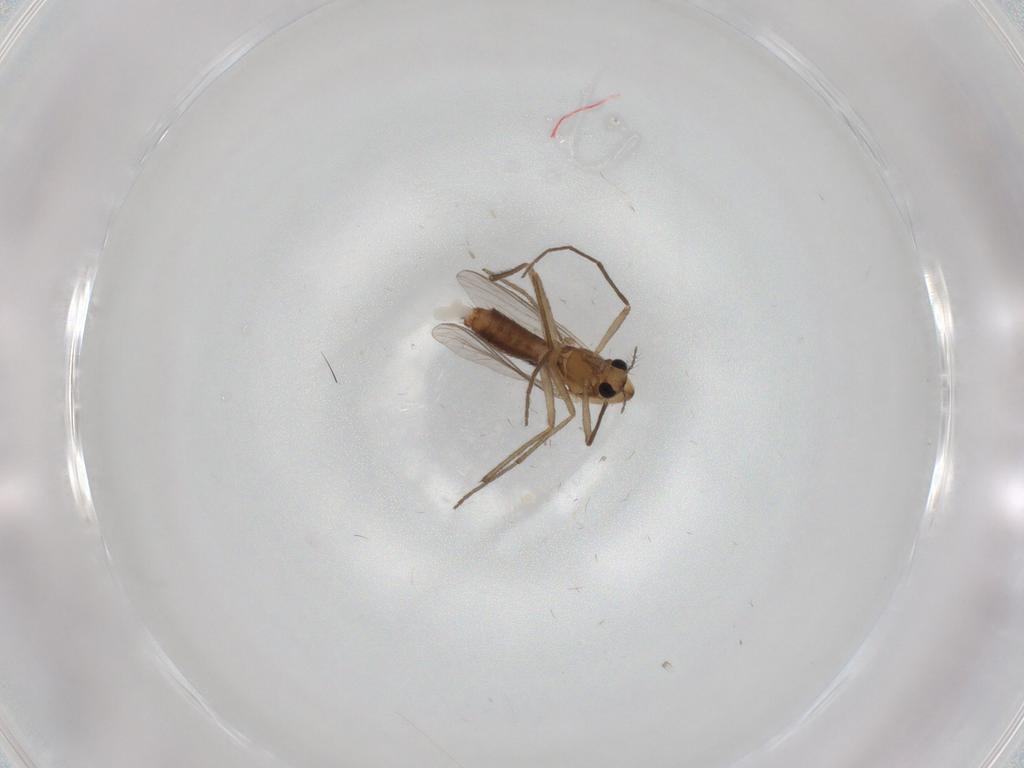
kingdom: Animalia
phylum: Arthropoda
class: Insecta
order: Diptera
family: Chironomidae
